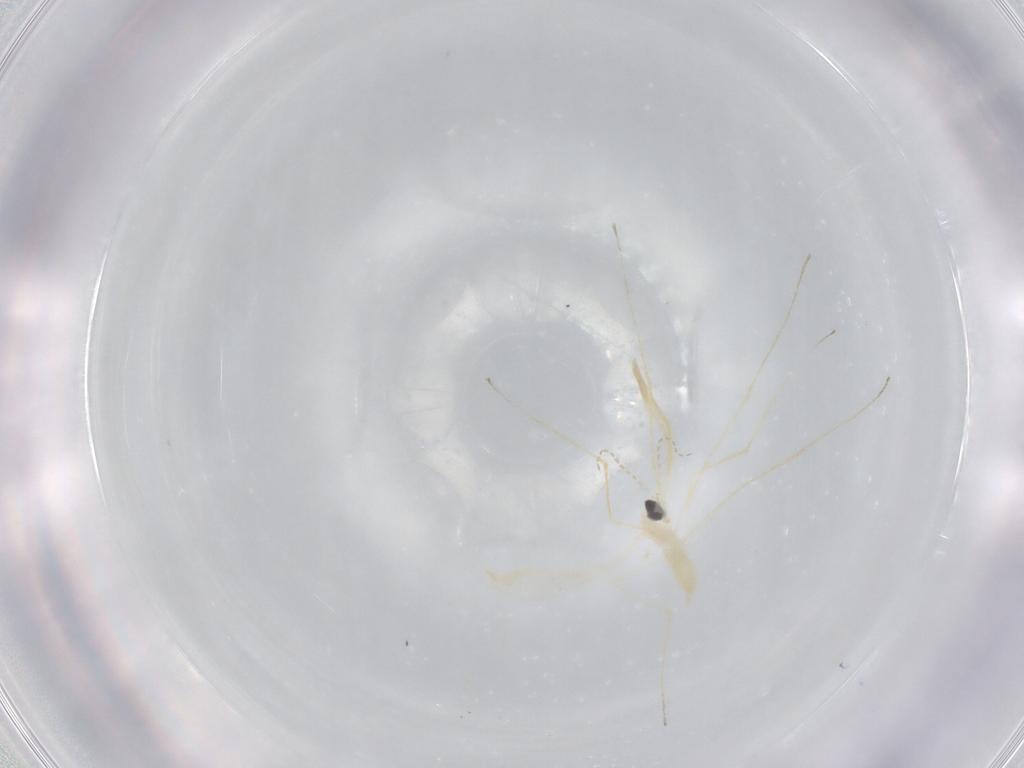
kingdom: Animalia
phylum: Arthropoda
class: Insecta
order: Diptera
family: Cecidomyiidae
